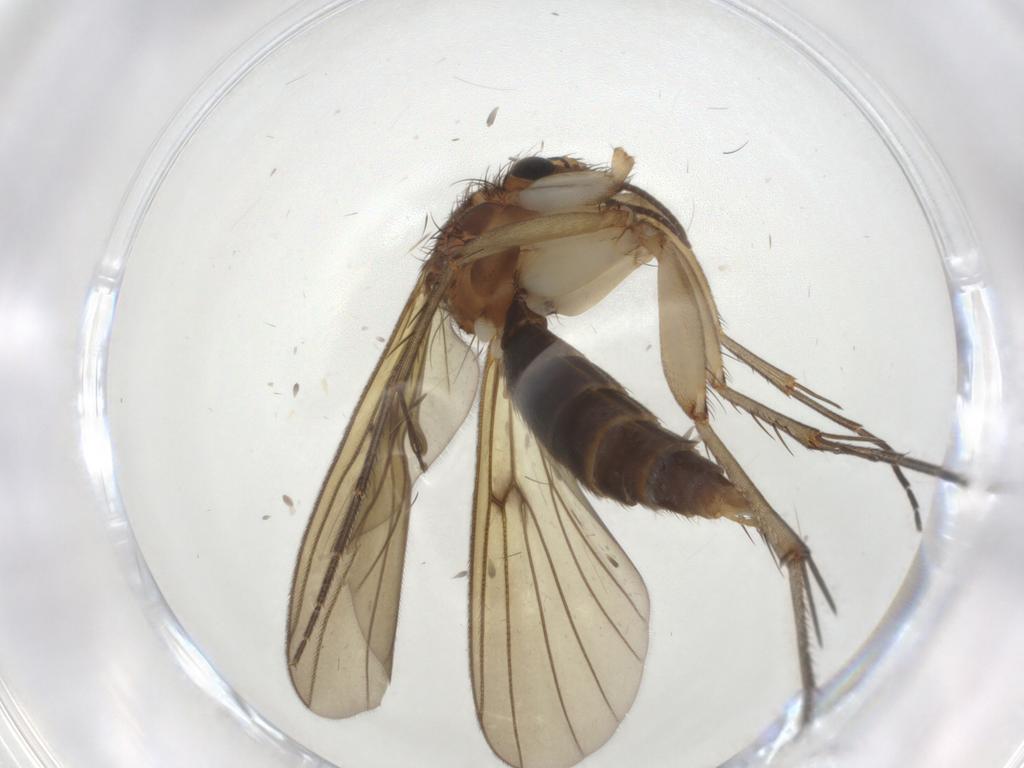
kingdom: Animalia
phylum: Arthropoda
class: Insecta
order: Diptera
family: Mycetophilidae
